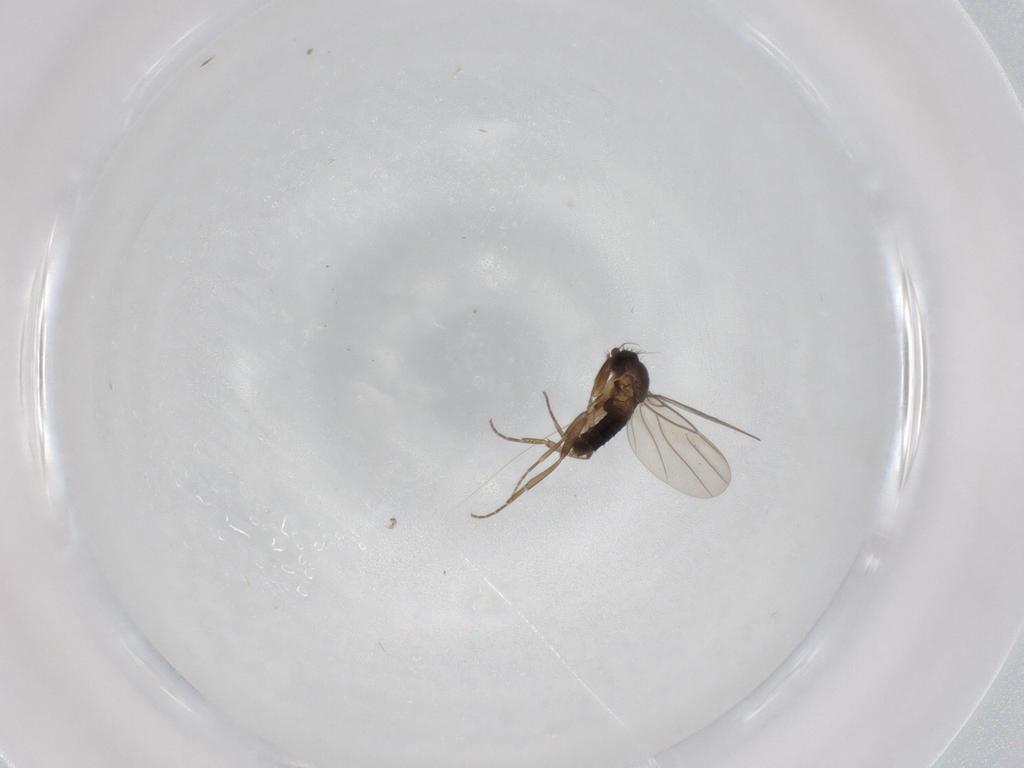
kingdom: Animalia
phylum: Arthropoda
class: Insecta
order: Diptera
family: Phoridae
